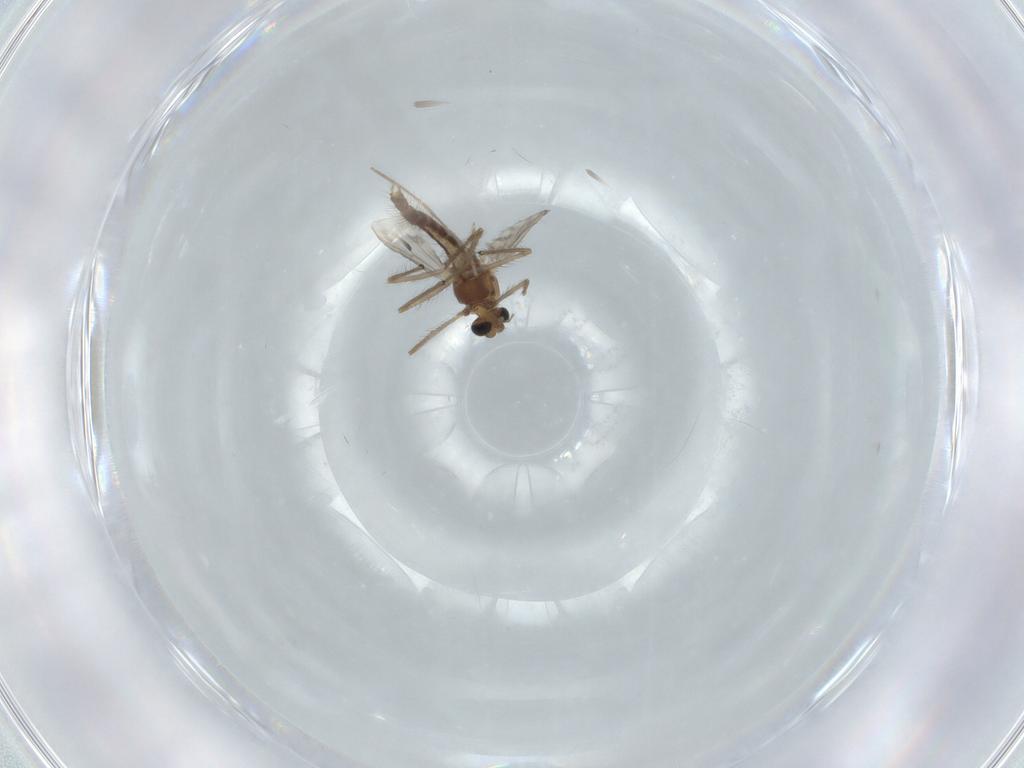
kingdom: Animalia
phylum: Arthropoda
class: Insecta
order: Diptera
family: Chironomidae
